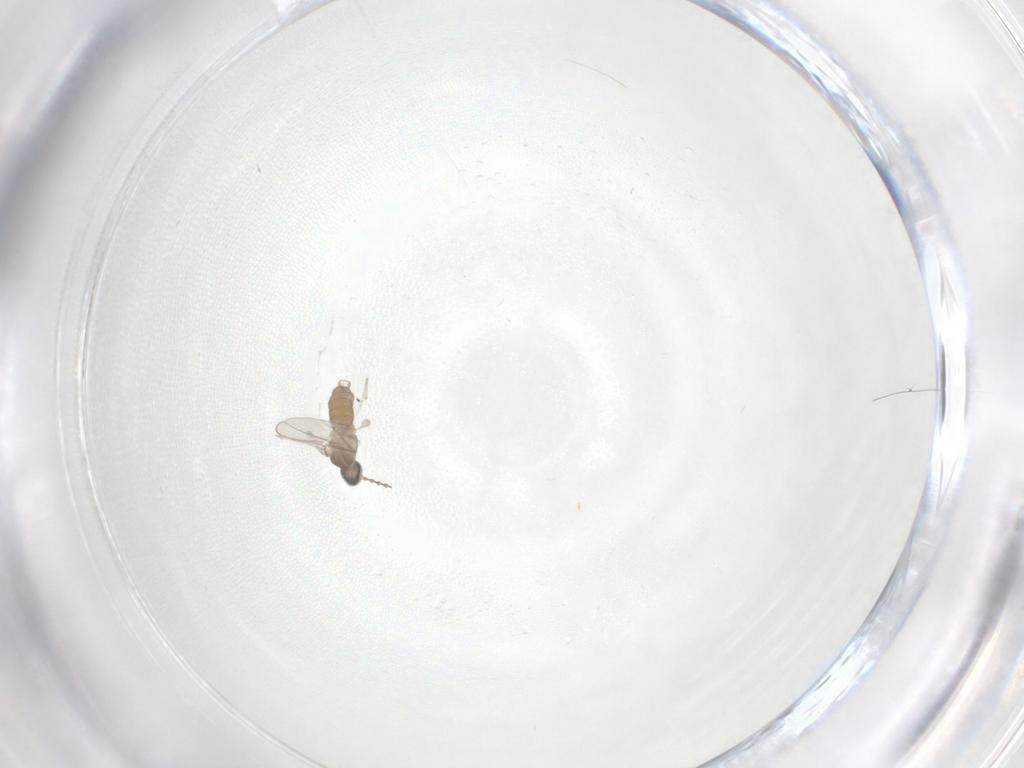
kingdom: Animalia
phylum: Arthropoda
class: Insecta
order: Diptera
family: Cecidomyiidae
